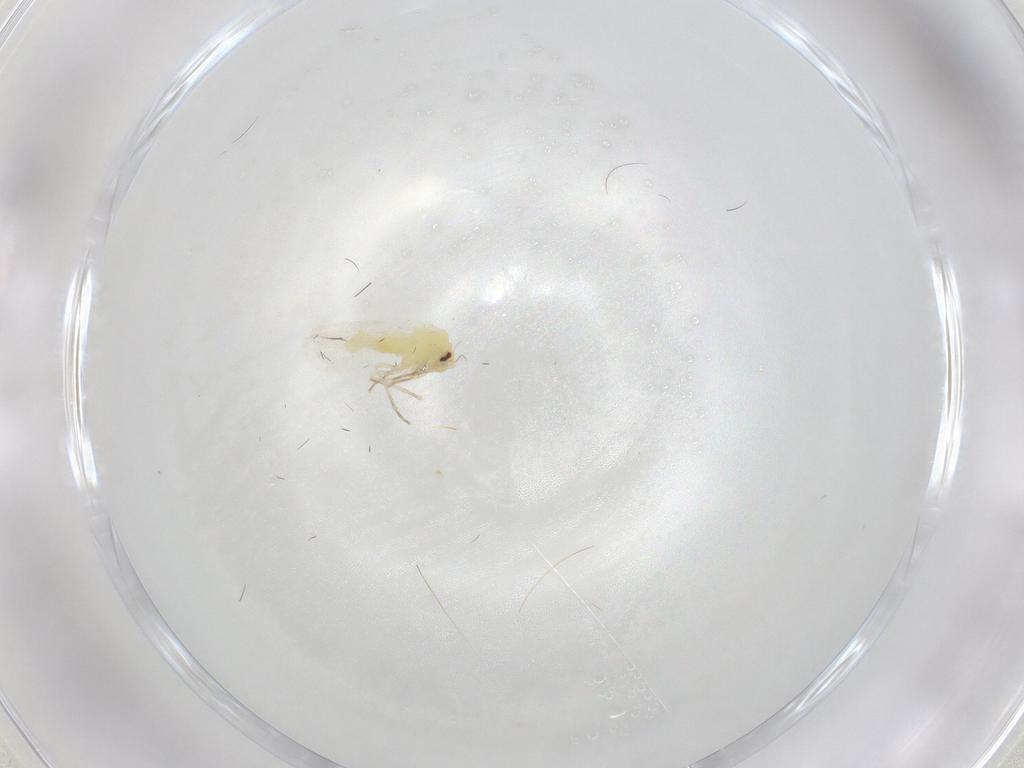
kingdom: Animalia
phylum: Arthropoda
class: Insecta
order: Hemiptera
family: Aleyrodidae
